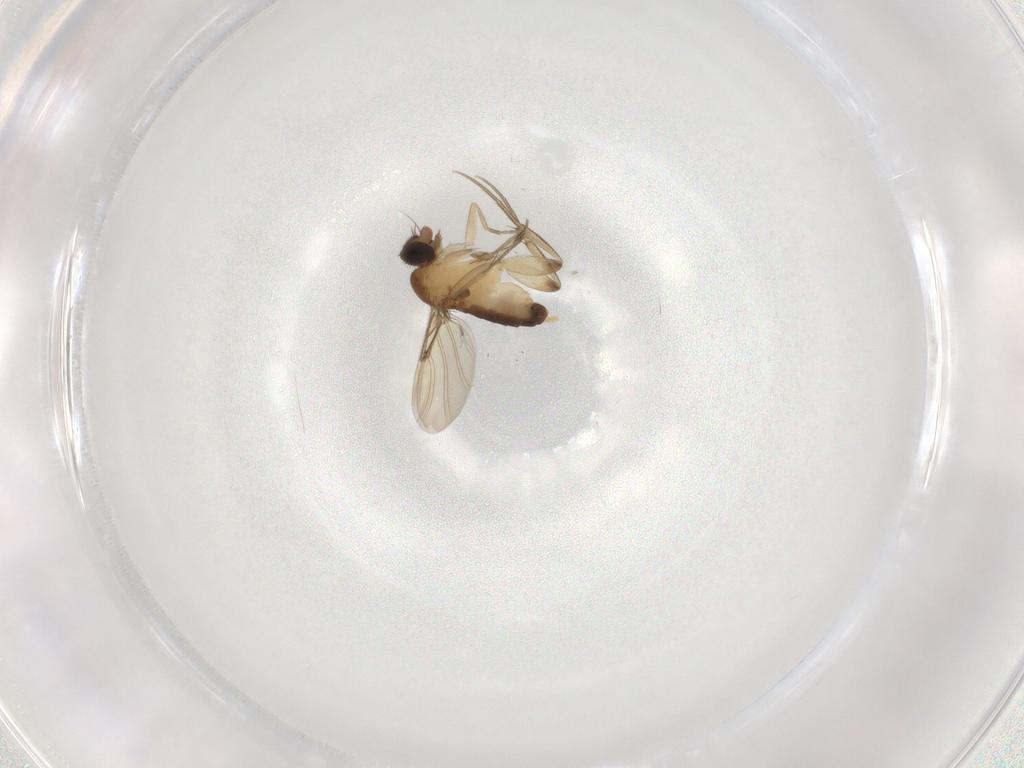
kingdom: Animalia
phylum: Arthropoda
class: Insecta
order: Diptera
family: Phoridae
